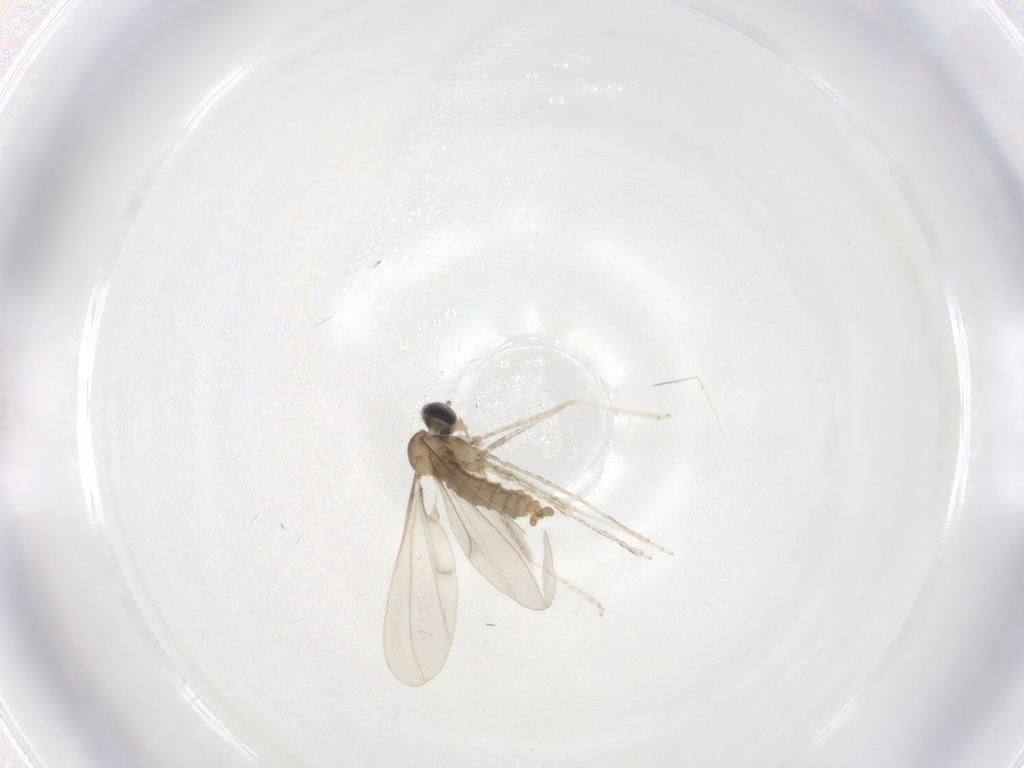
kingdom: Animalia
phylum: Arthropoda
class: Insecta
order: Diptera
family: Cecidomyiidae
